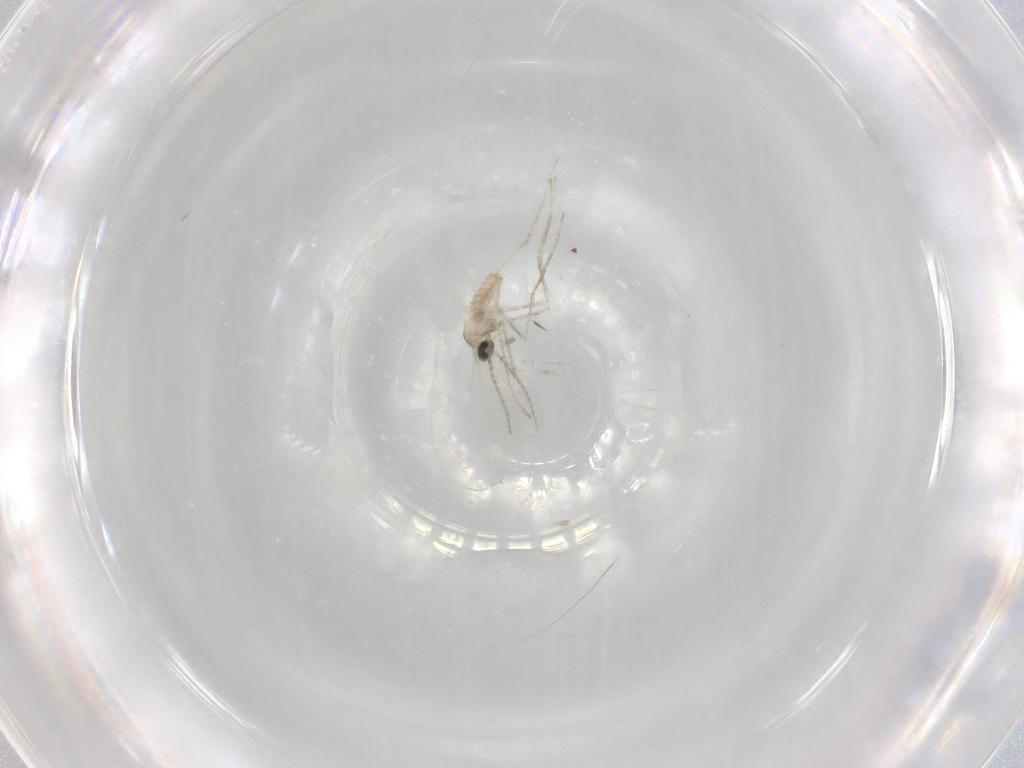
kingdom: Animalia
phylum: Arthropoda
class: Insecta
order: Diptera
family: Cecidomyiidae
